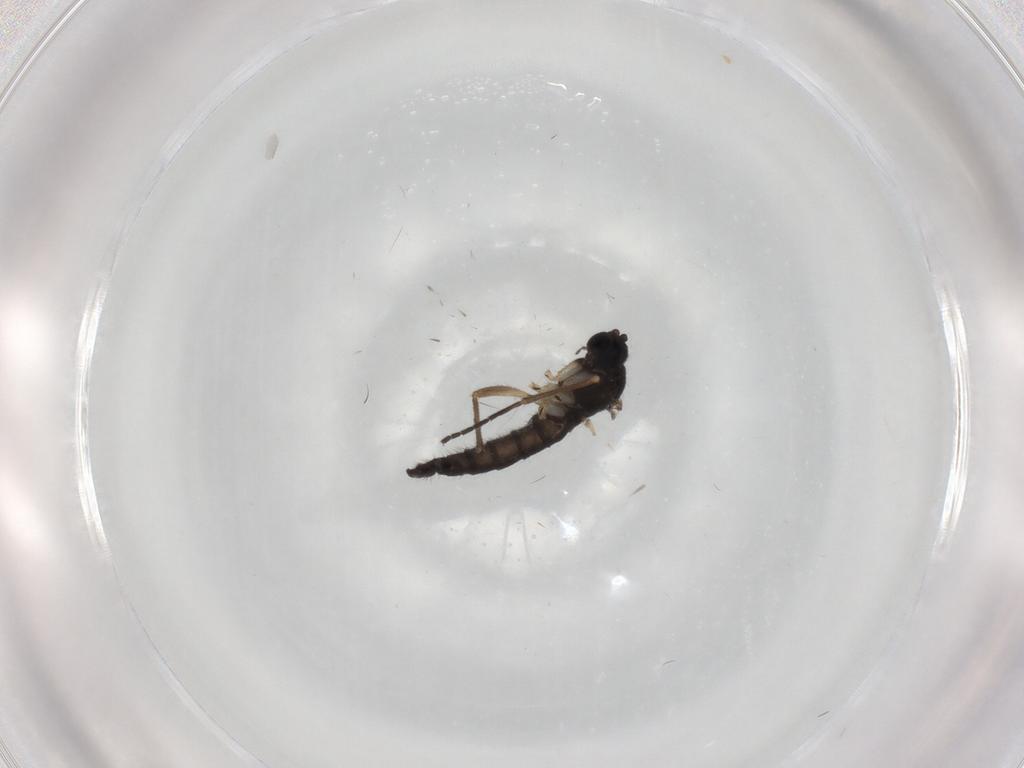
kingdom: Animalia
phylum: Arthropoda
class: Insecta
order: Diptera
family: Sciaridae
